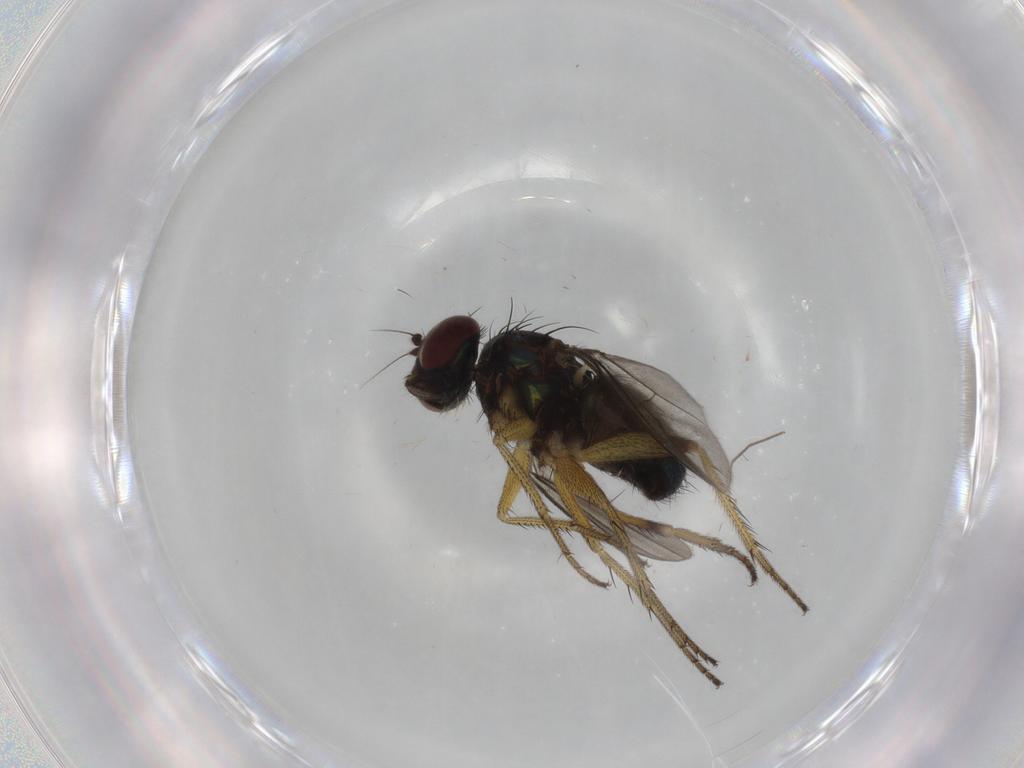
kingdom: Animalia
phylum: Arthropoda
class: Insecta
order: Diptera
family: Dolichopodidae
